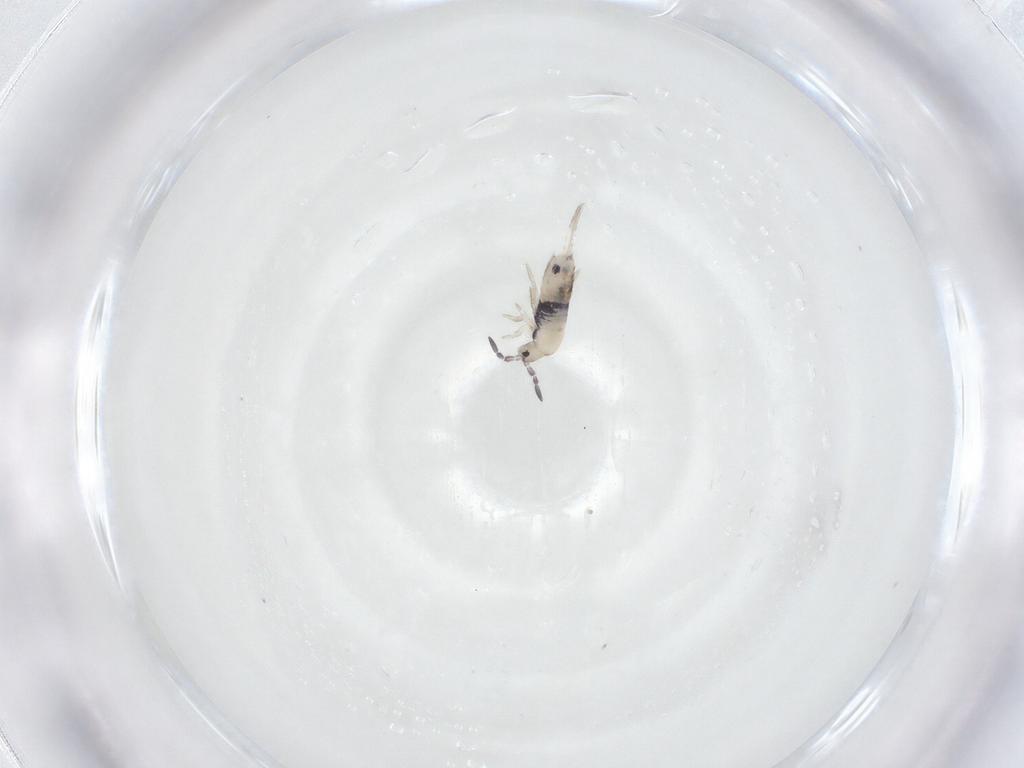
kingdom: Animalia
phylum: Arthropoda
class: Collembola
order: Entomobryomorpha
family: Entomobryidae
